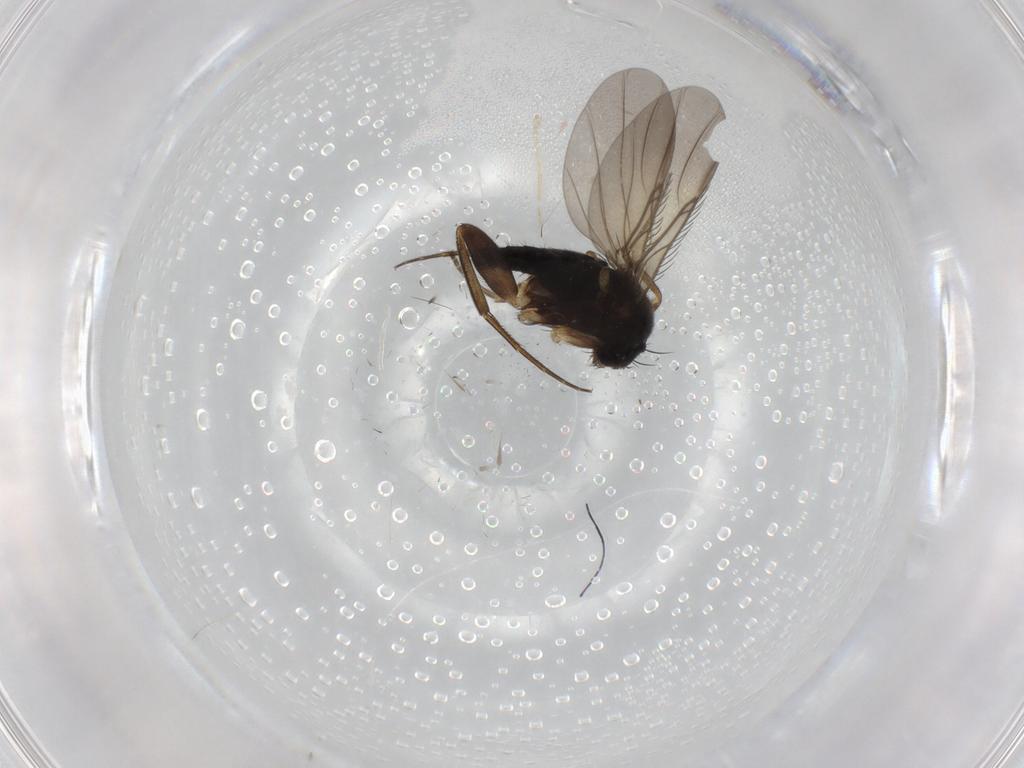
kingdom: Animalia
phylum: Arthropoda
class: Insecta
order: Diptera
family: Phoridae
